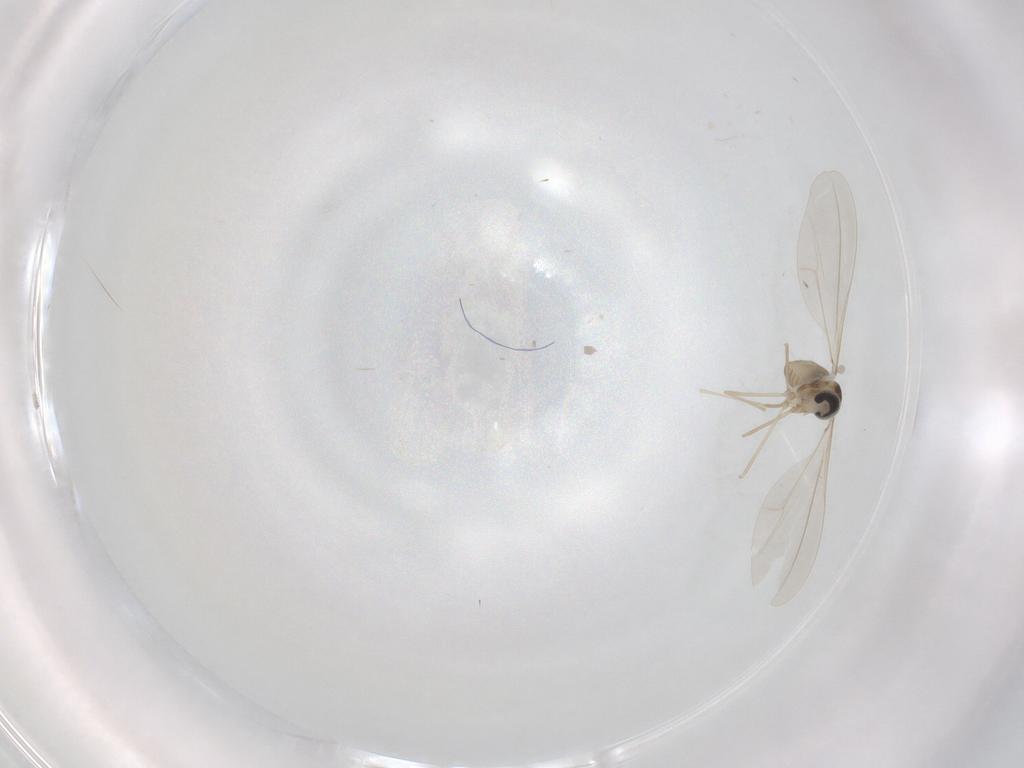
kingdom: Animalia
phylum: Arthropoda
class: Insecta
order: Diptera
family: Cecidomyiidae
